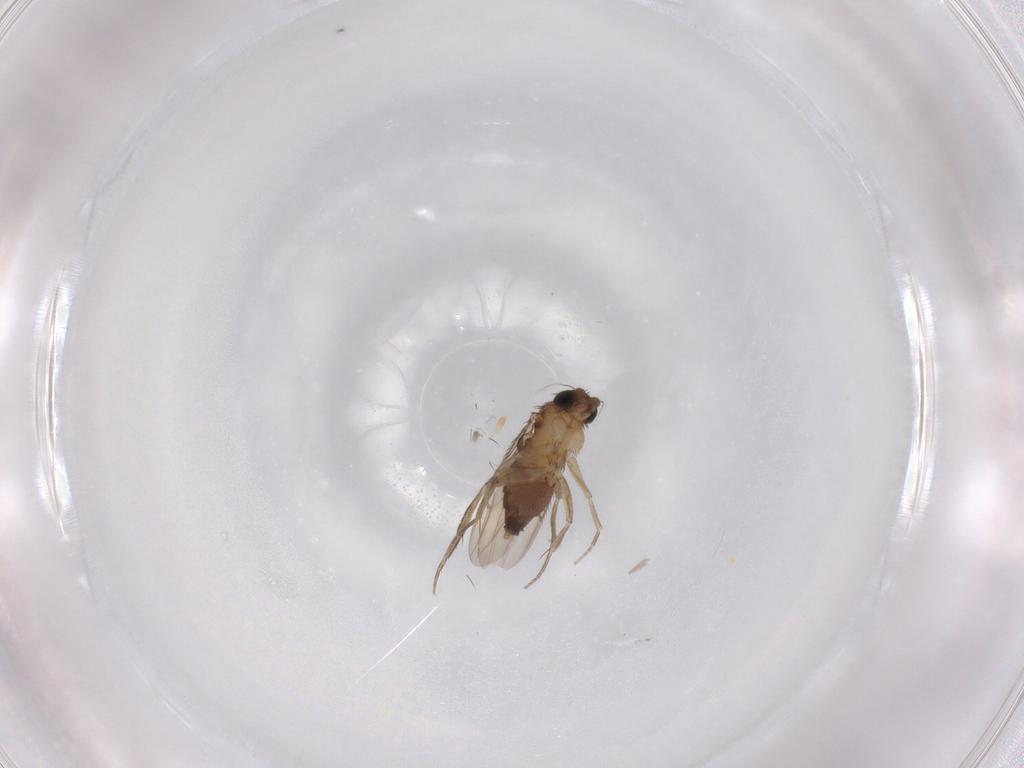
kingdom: Animalia
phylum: Arthropoda
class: Insecta
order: Diptera
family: Phoridae
